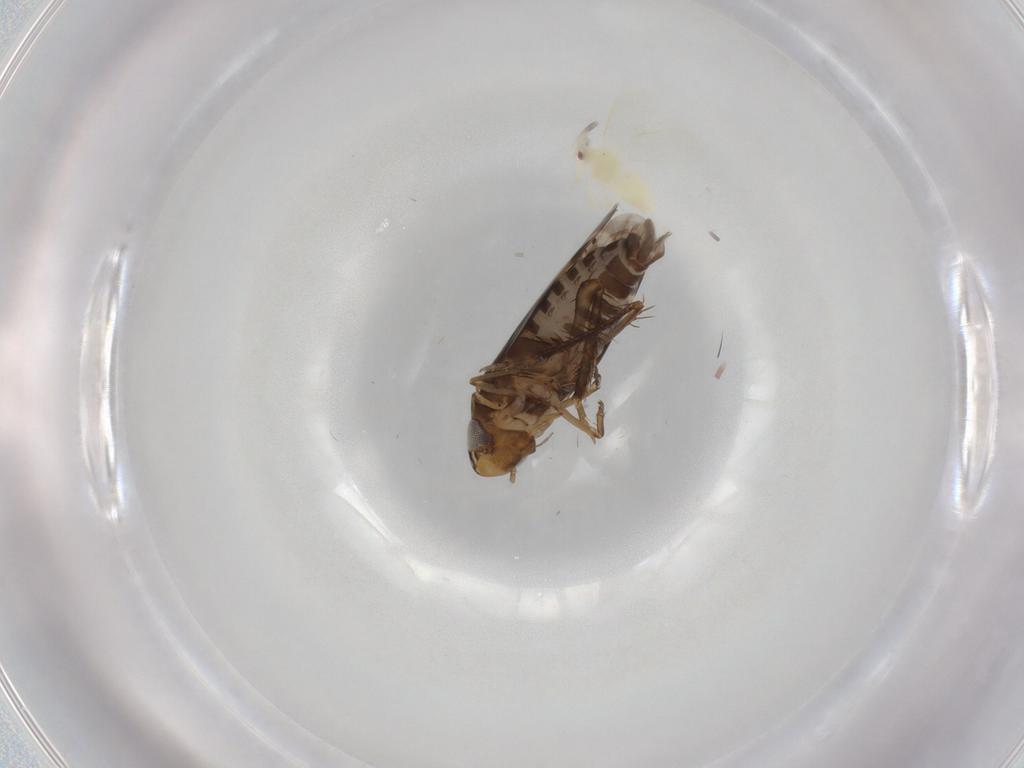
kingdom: Animalia
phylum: Arthropoda
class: Insecta
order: Hemiptera
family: Cicadellidae
